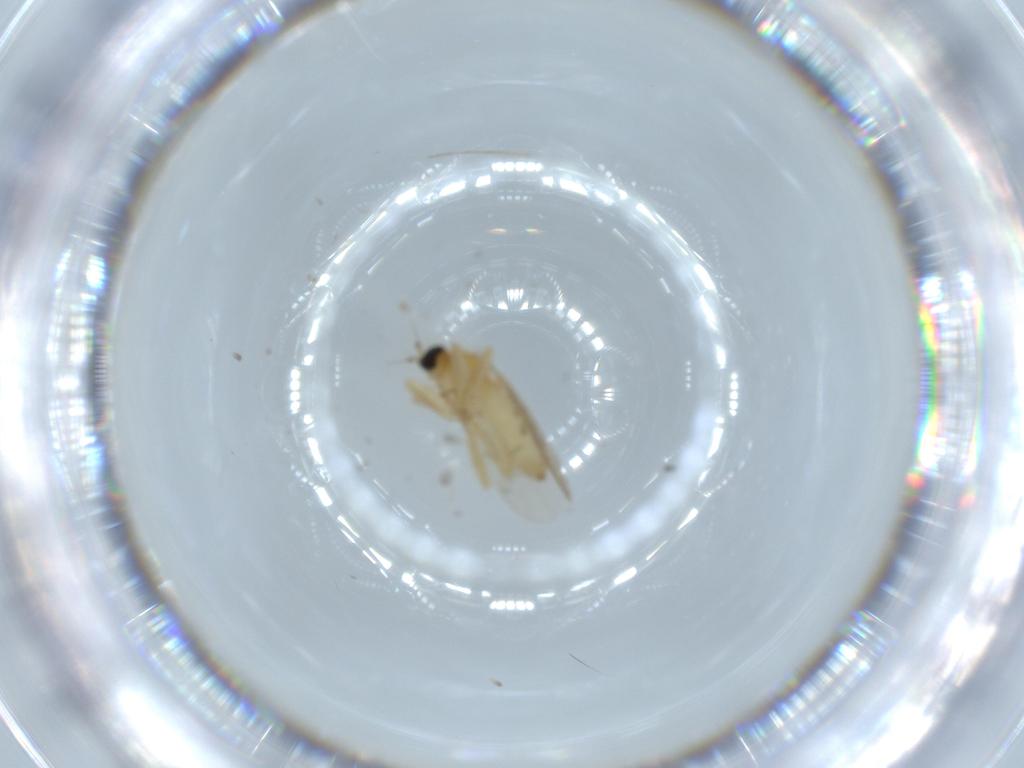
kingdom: Animalia
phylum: Arthropoda
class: Insecta
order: Diptera
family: Hybotidae
